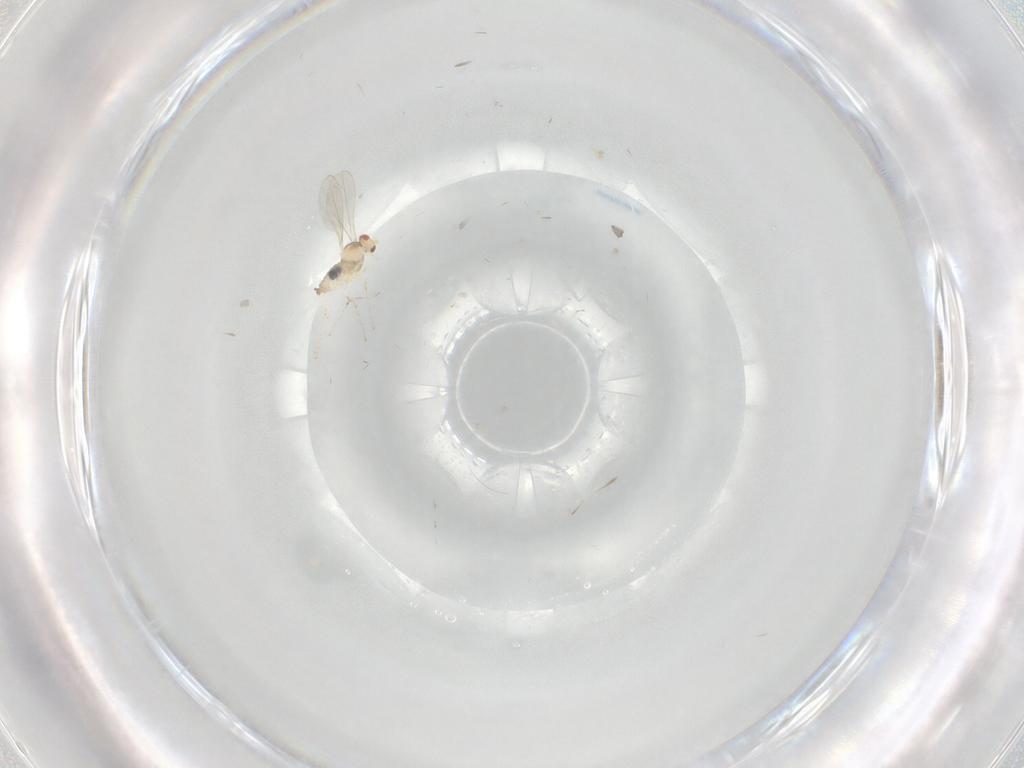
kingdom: Animalia
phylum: Arthropoda
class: Insecta
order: Diptera
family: Cecidomyiidae
